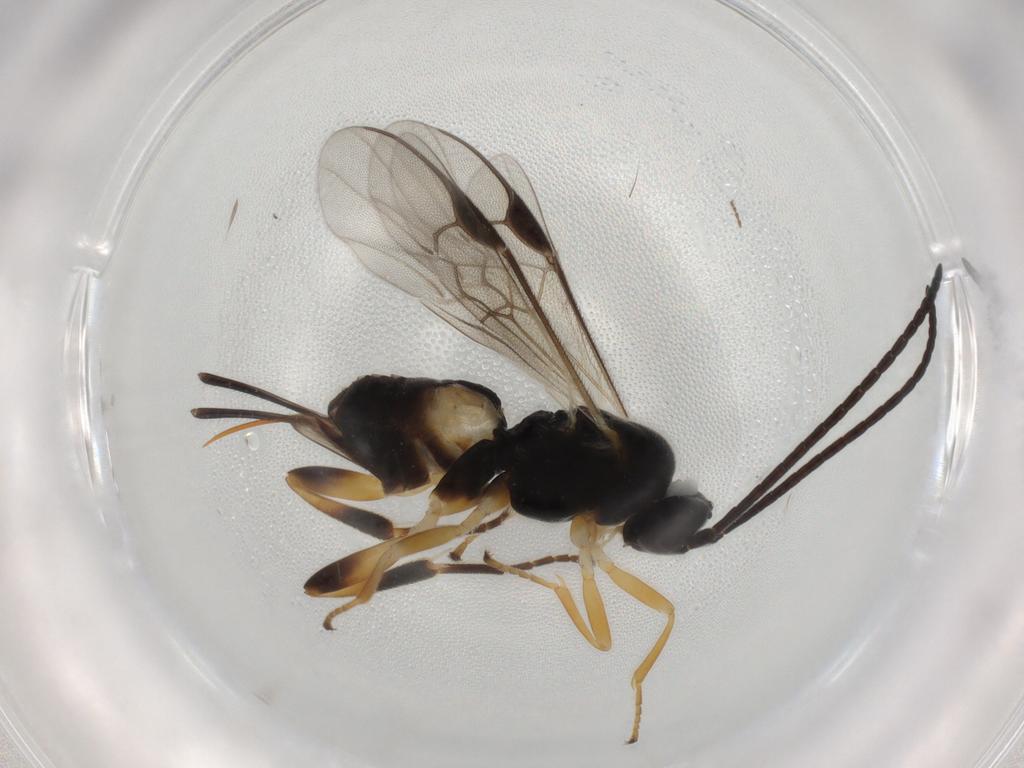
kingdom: Animalia
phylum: Arthropoda
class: Insecta
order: Hymenoptera
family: Braconidae
